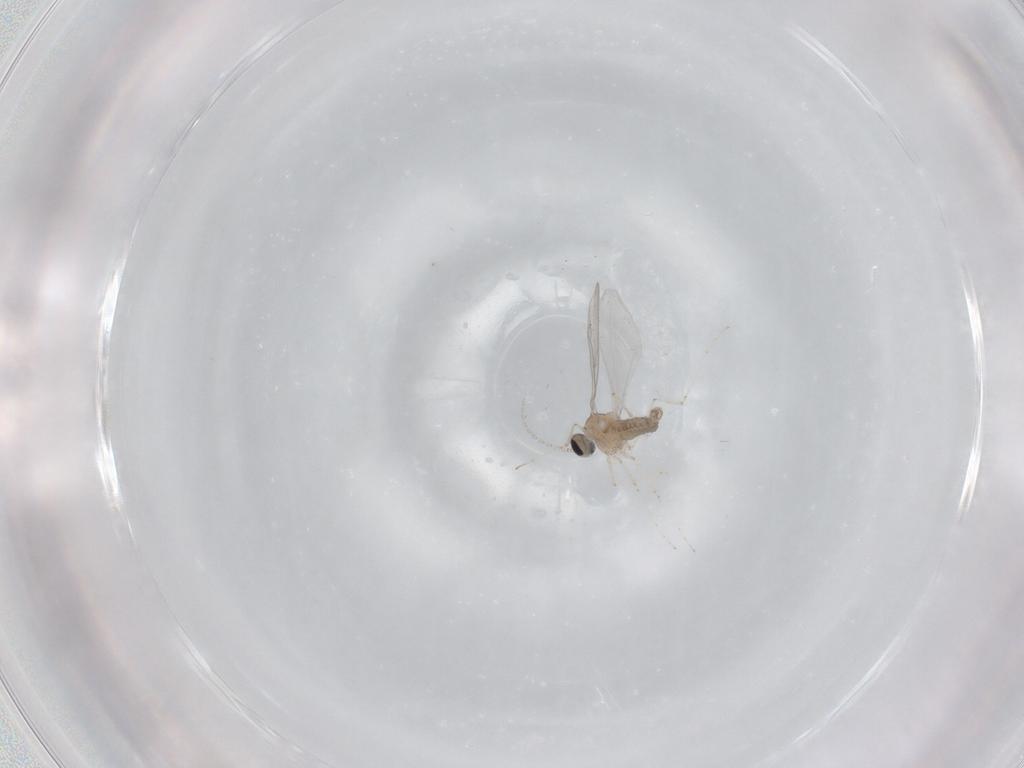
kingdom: Animalia
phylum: Arthropoda
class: Insecta
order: Diptera
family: Cecidomyiidae
